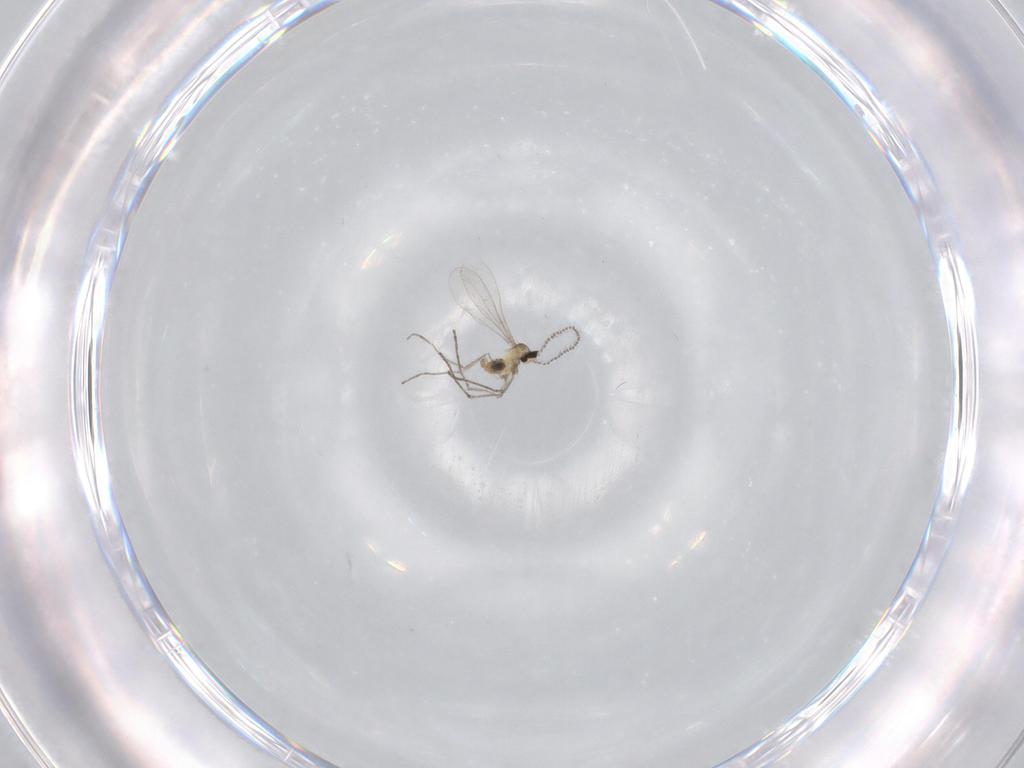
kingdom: Animalia
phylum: Arthropoda
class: Insecta
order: Diptera
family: Cecidomyiidae
